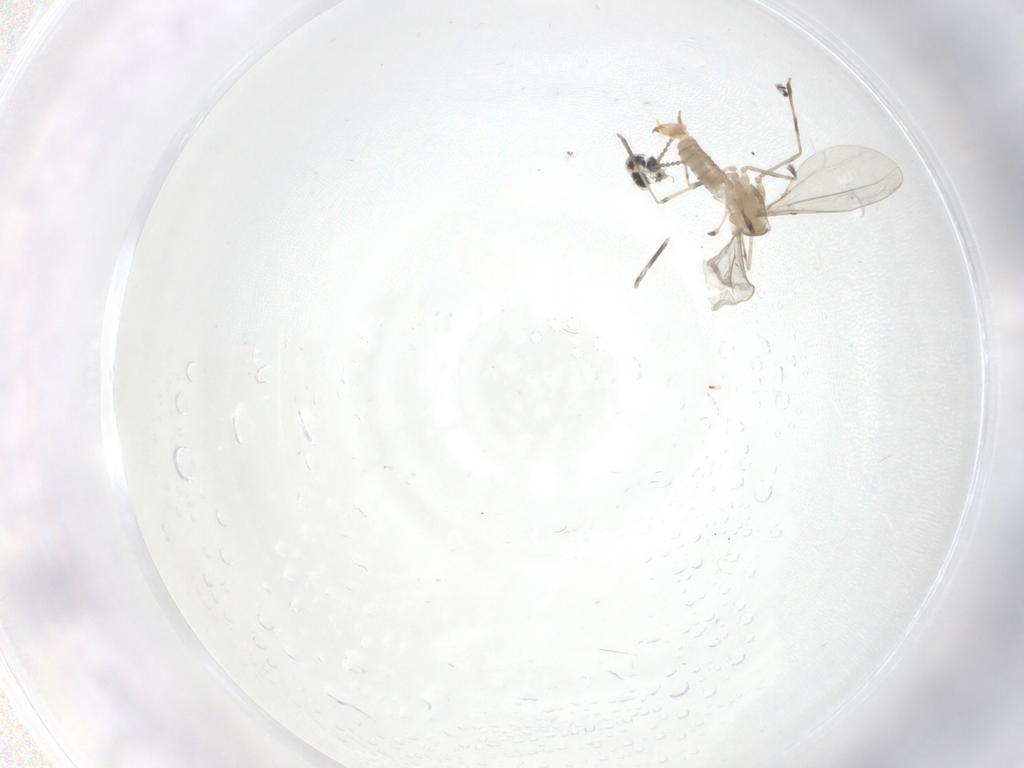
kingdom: Animalia
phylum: Arthropoda
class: Insecta
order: Diptera
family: Cecidomyiidae
